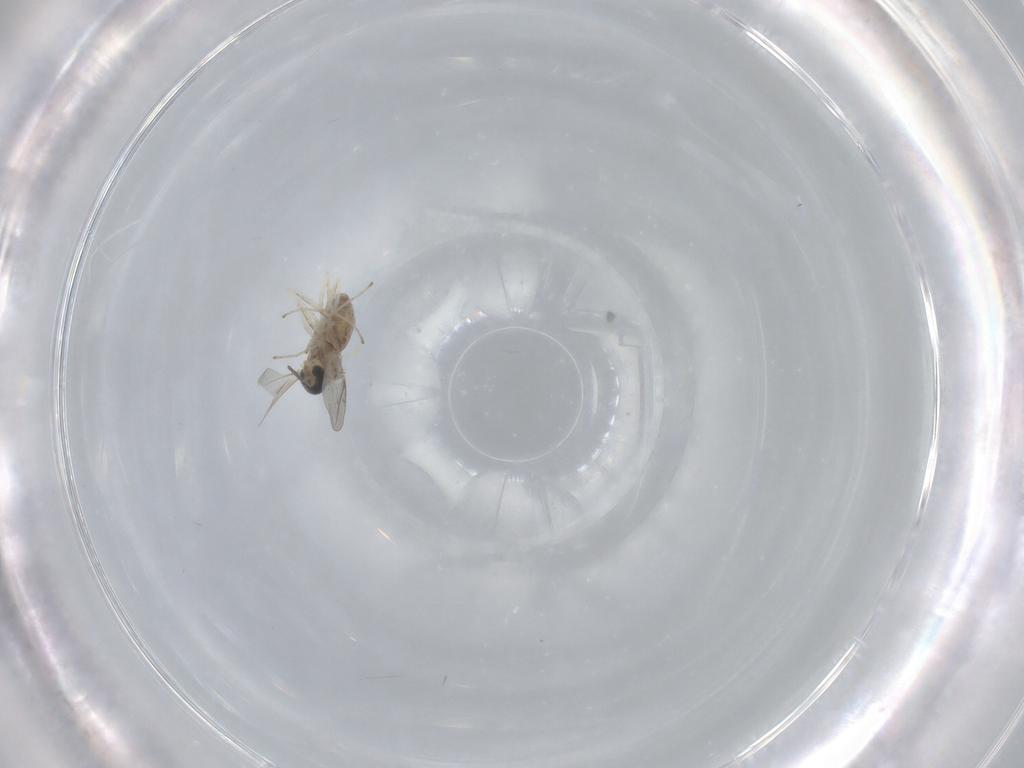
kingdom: Animalia
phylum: Arthropoda
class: Insecta
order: Diptera
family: Cecidomyiidae
